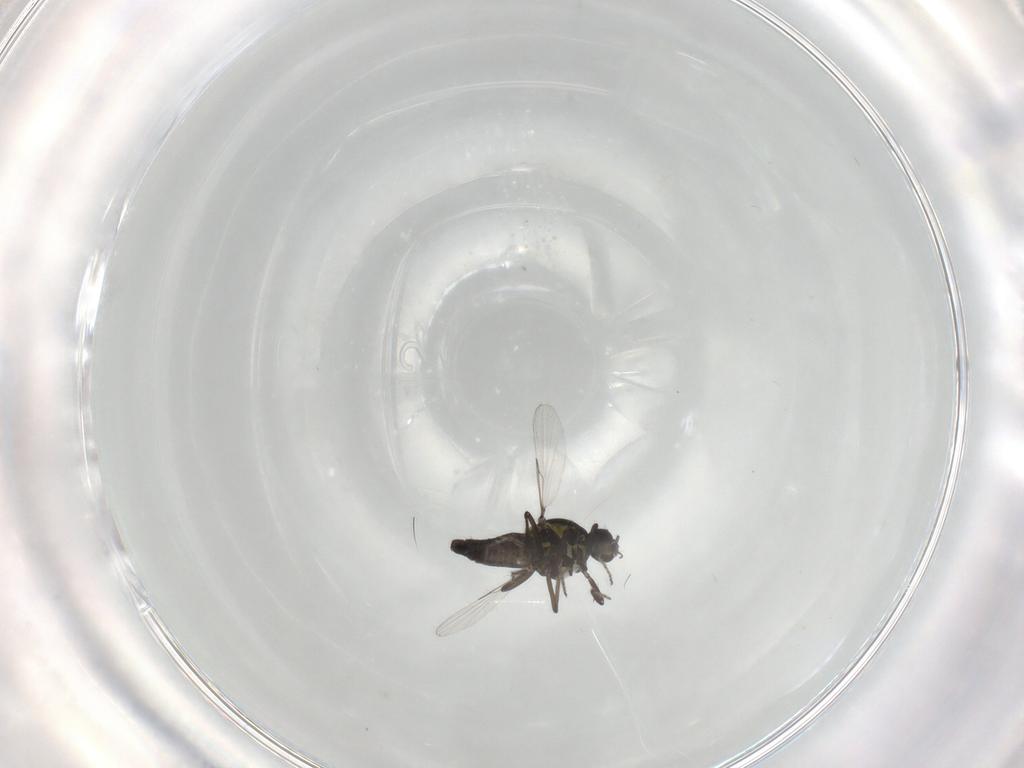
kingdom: Animalia
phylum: Arthropoda
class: Insecta
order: Diptera
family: Ceratopogonidae
